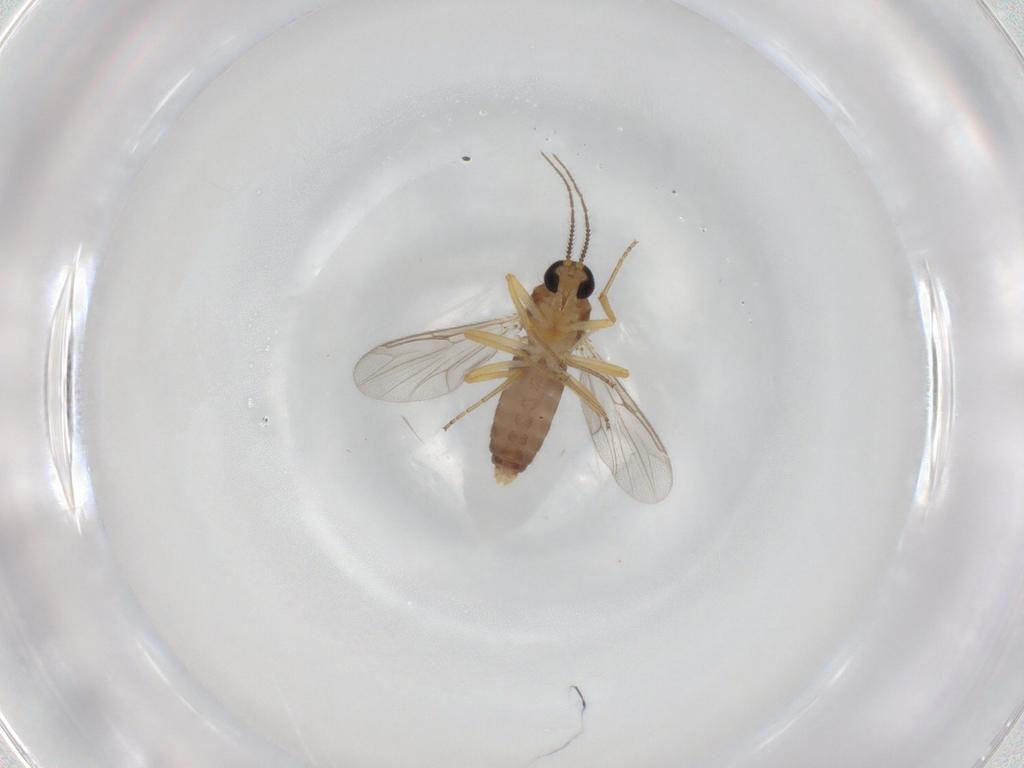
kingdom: Animalia
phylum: Arthropoda
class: Insecta
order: Diptera
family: Ceratopogonidae
